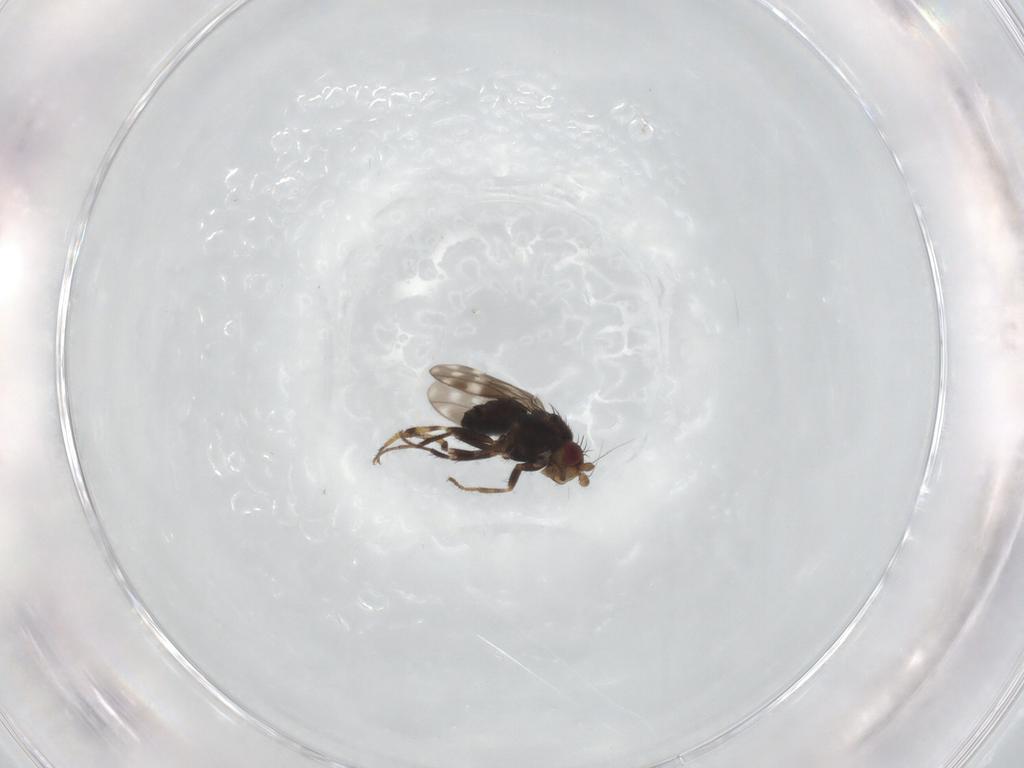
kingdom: Animalia
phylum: Arthropoda
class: Insecta
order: Diptera
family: Sphaeroceridae
